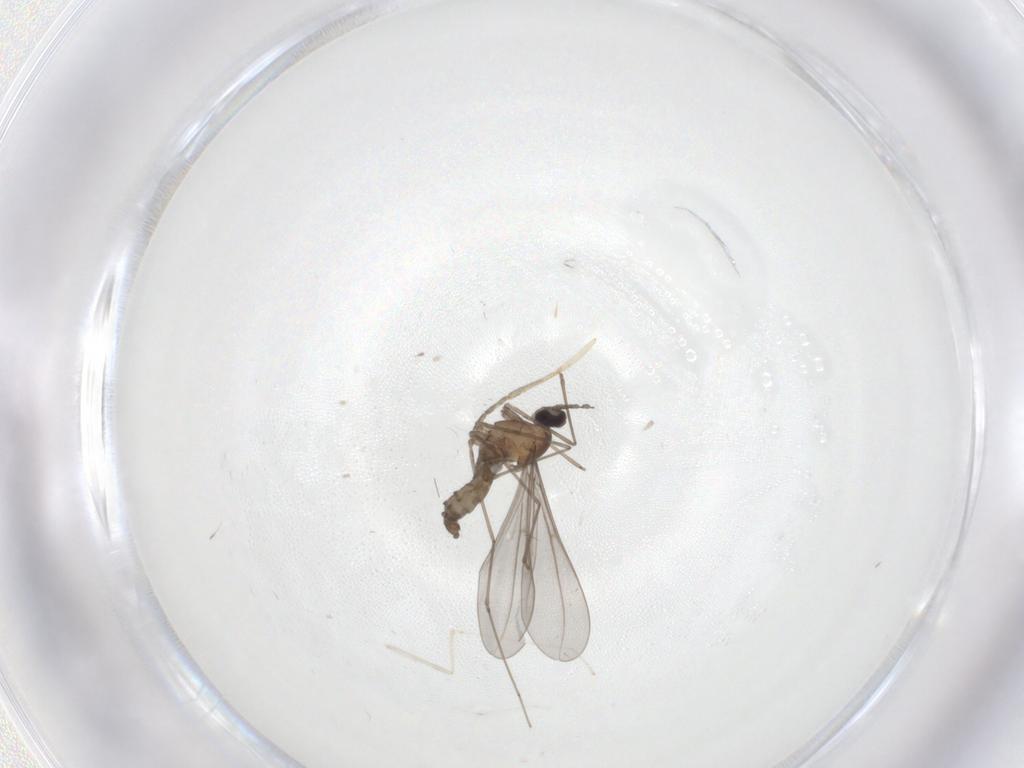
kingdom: Animalia
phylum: Arthropoda
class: Insecta
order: Diptera
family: Cecidomyiidae
